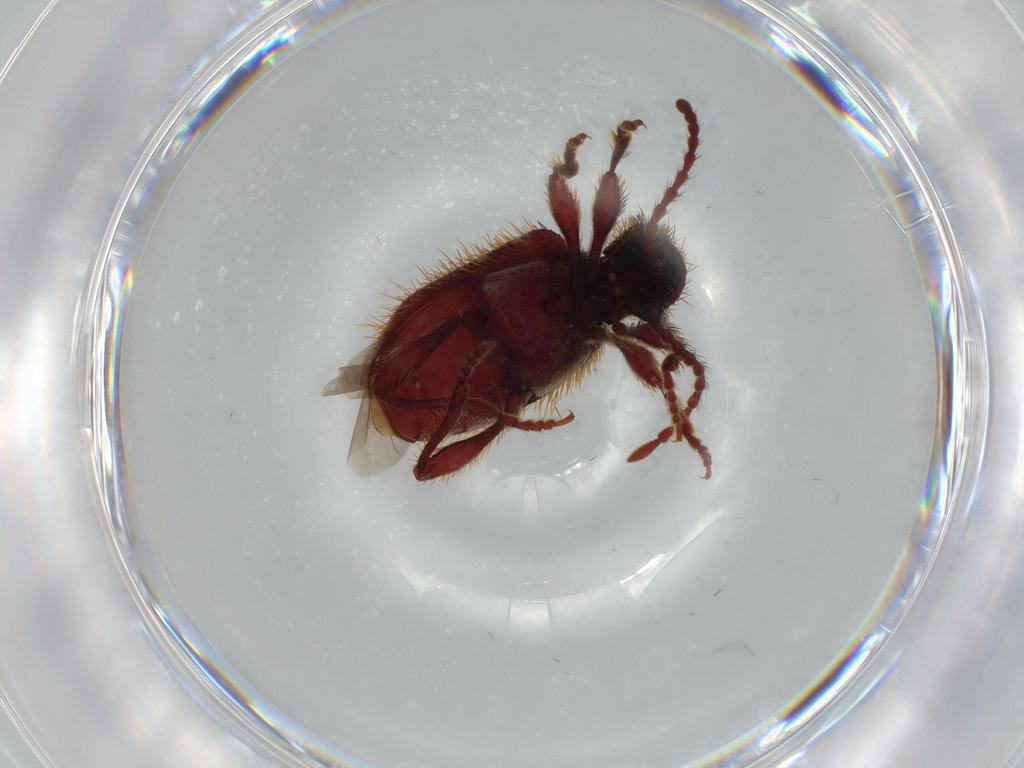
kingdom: Animalia
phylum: Arthropoda
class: Insecta
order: Coleoptera
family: Ptinidae
